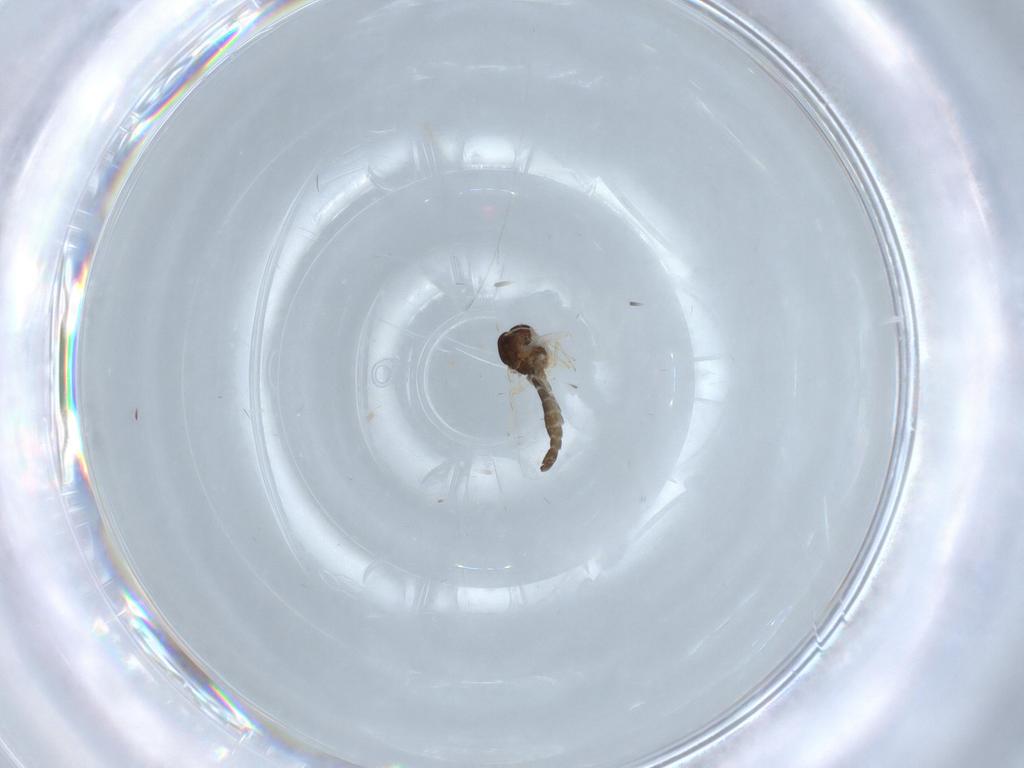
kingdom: Animalia
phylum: Arthropoda
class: Insecta
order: Diptera
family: Chironomidae
